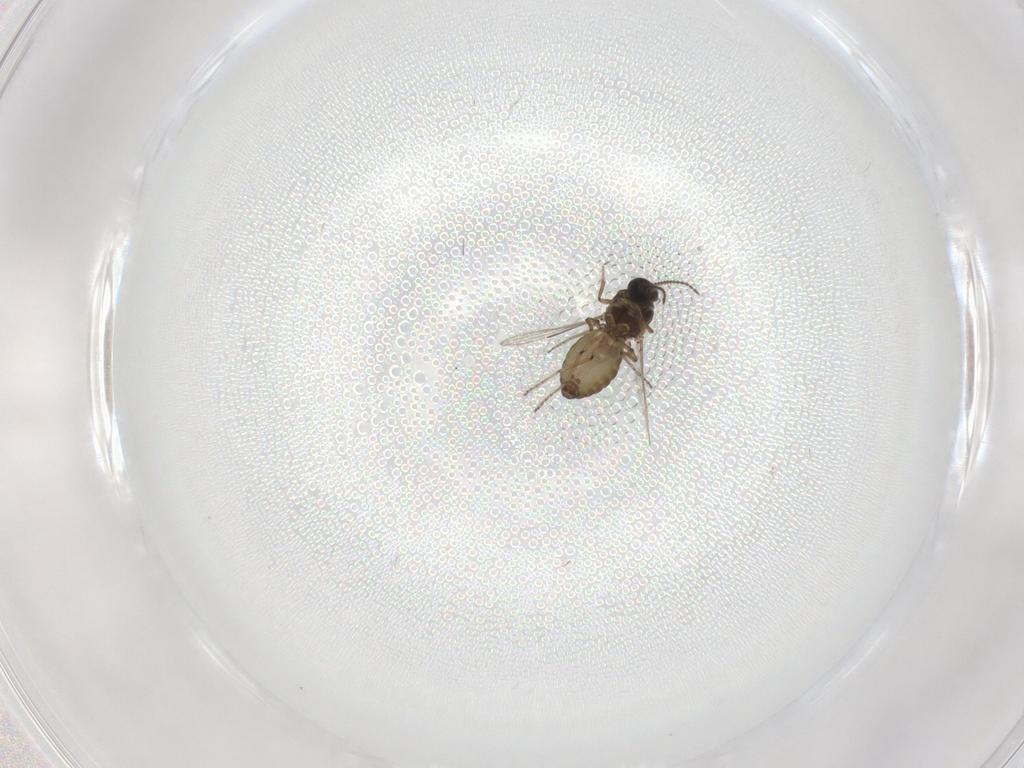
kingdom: Animalia
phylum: Arthropoda
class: Insecta
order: Diptera
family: Ceratopogonidae
